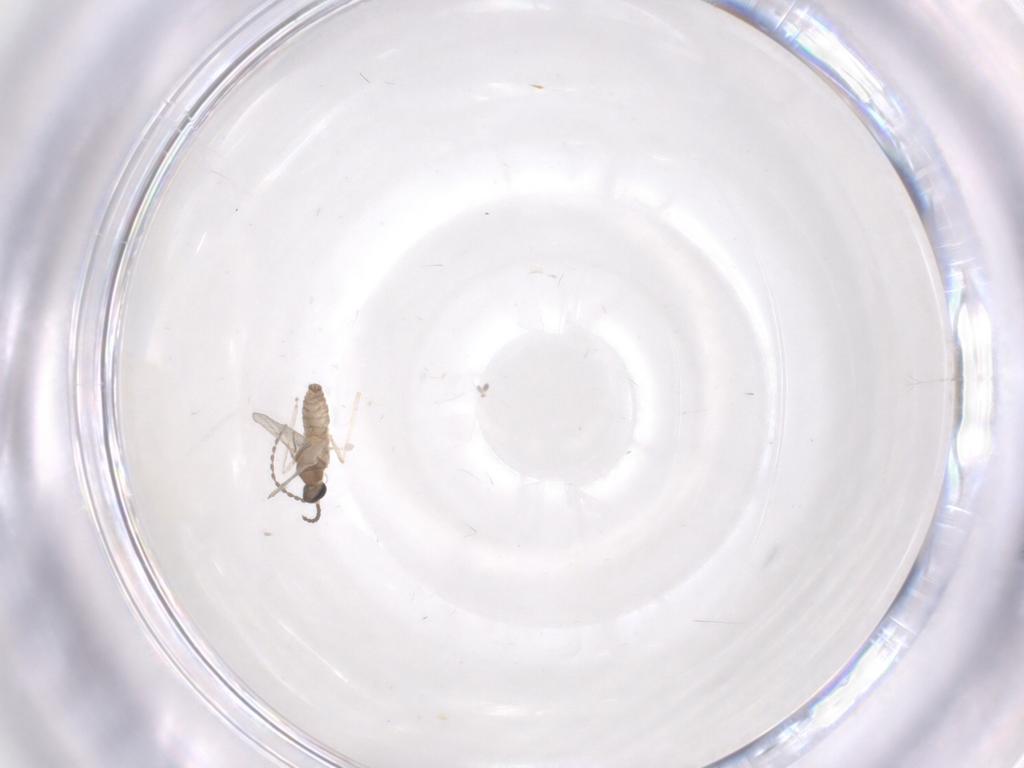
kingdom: Animalia
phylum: Arthropoda
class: Insecta
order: Diptera
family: Cecidomyiidae
